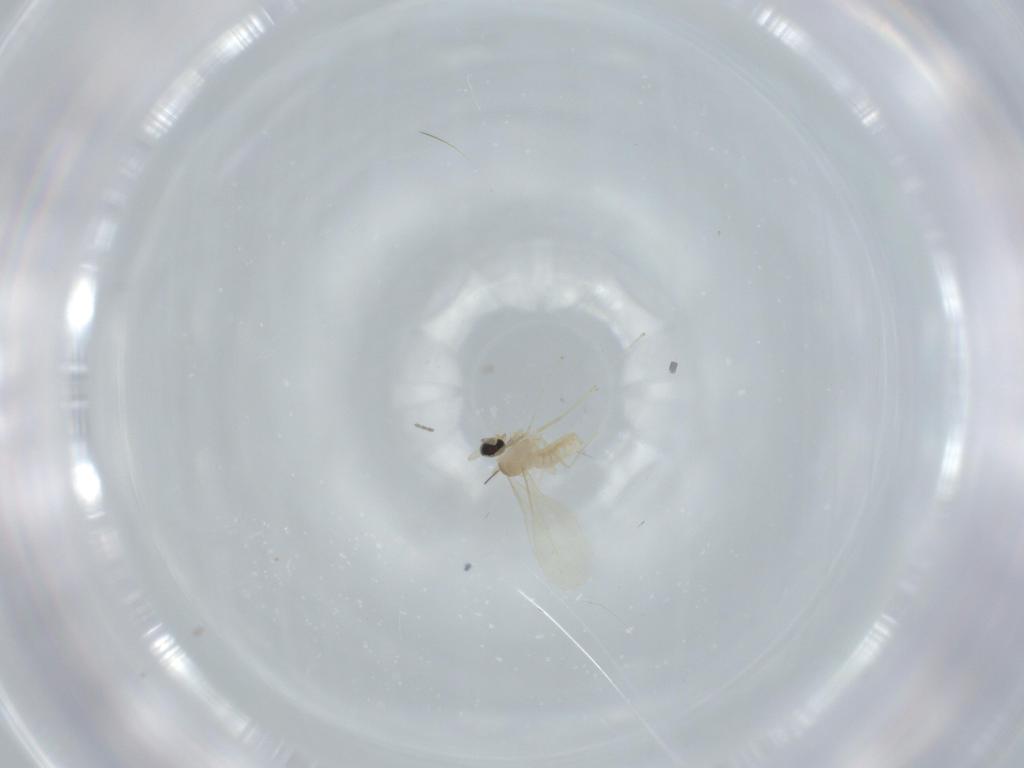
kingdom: Animalia
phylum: Arthropoda
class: Insecta
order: Diptera
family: Cecidomyiidae
